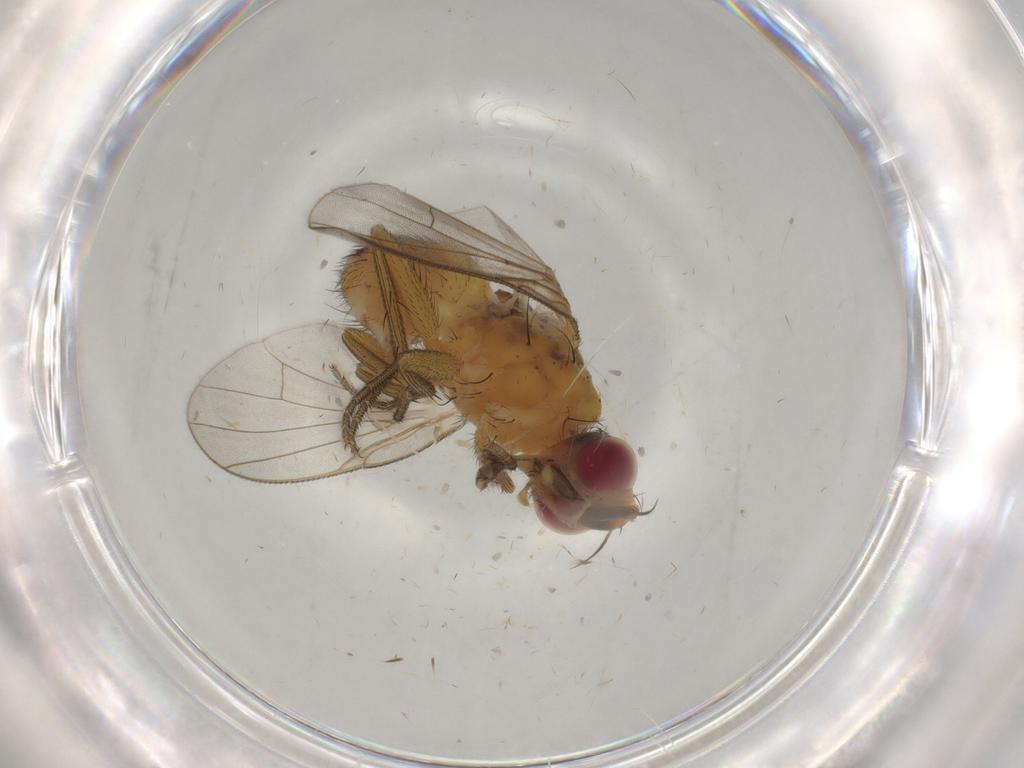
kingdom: Animalia
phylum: Arthropoda
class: Insecta
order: Diptera
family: Muscidae
